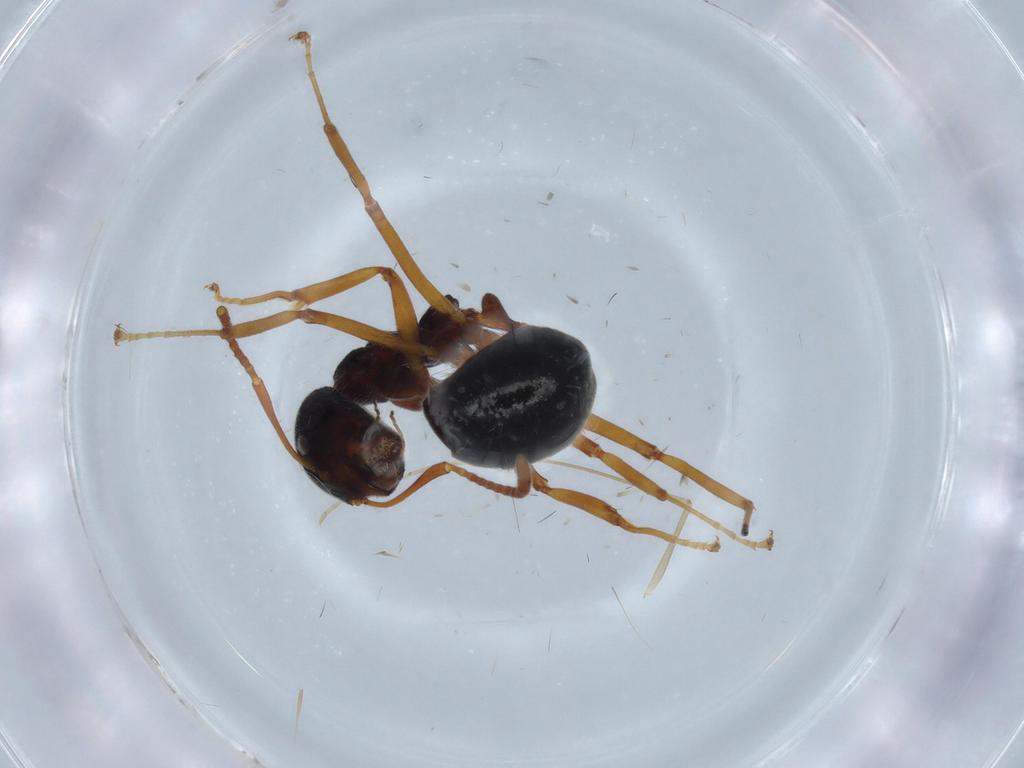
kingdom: Animalia
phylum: Arthropoda
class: Insecta
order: Hymenoptera
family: Formicidae
